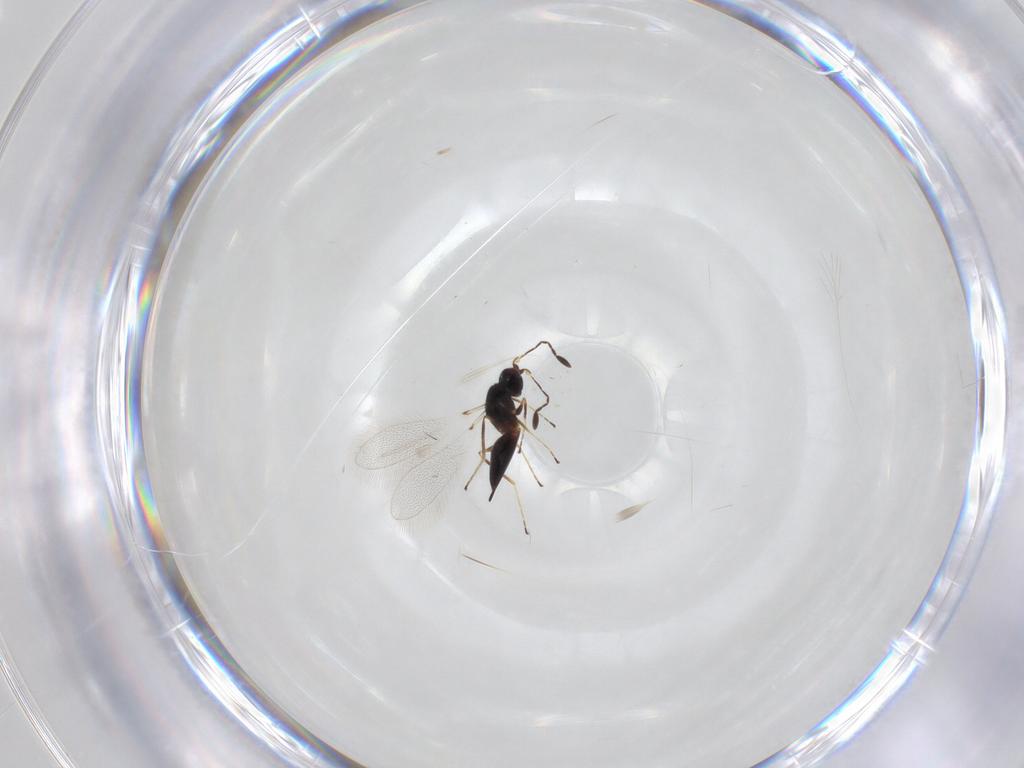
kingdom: Animalia
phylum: Arthropoda
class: Insecta
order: Hymenoptera
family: Mymaridae
